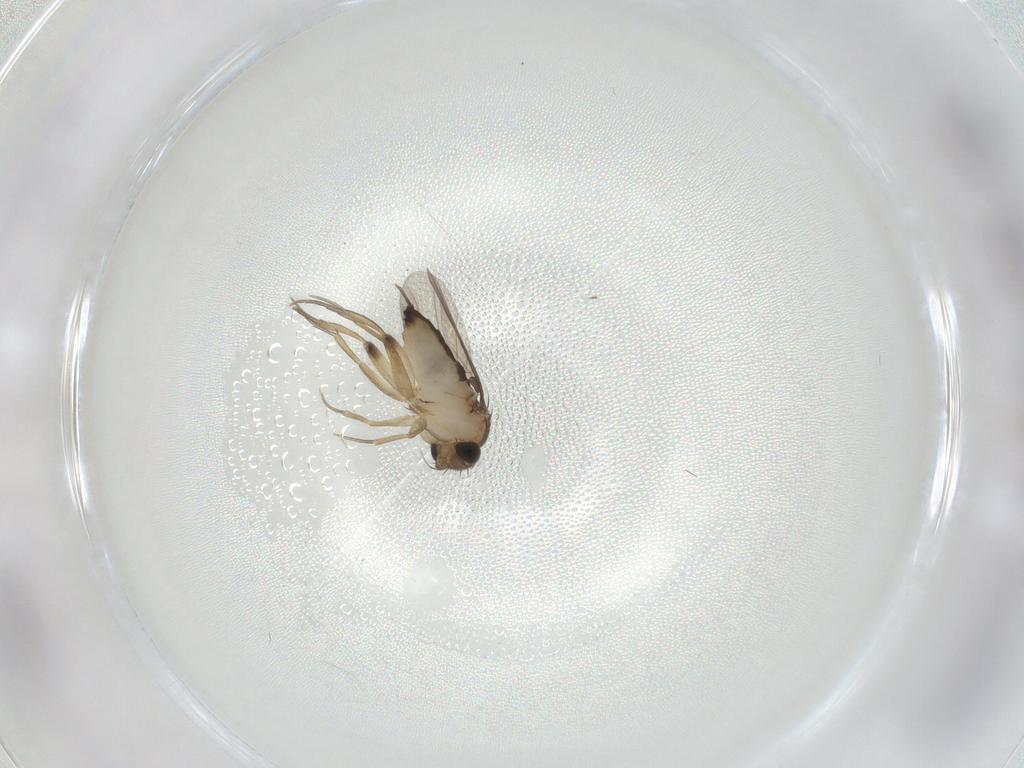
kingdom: Animalia
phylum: Arthropoda
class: Insecta
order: Diptera
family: Phoridae
